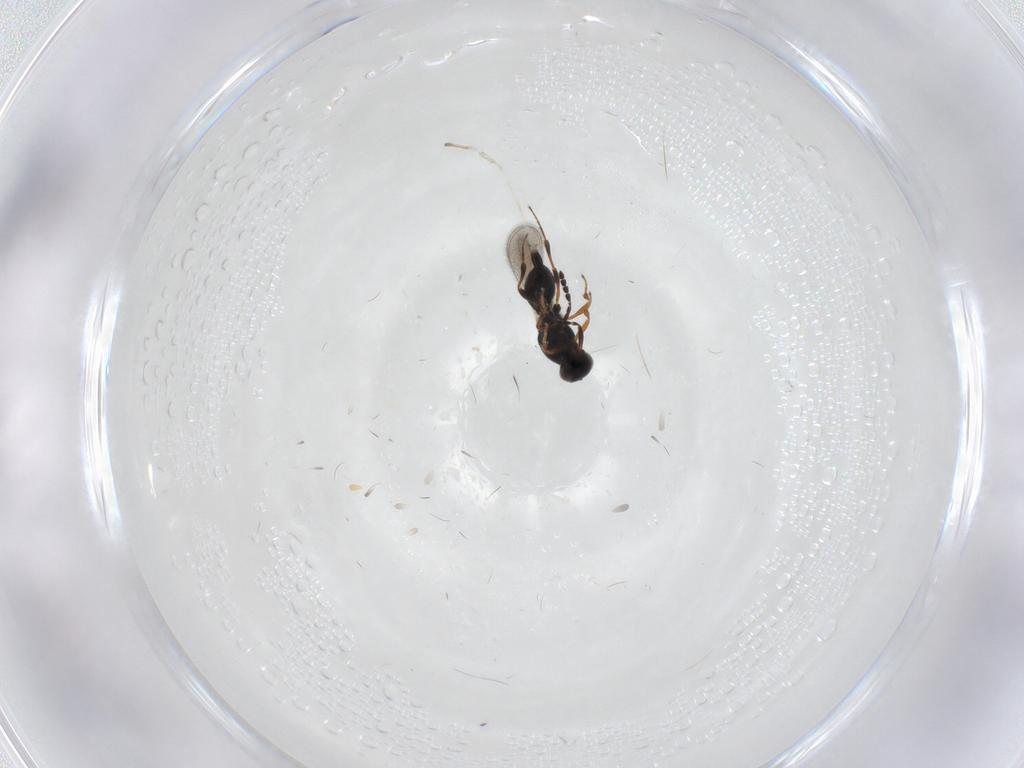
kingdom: Animalia
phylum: Arthropoda
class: Insecta
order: Hymenoptera
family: Platygastridae
